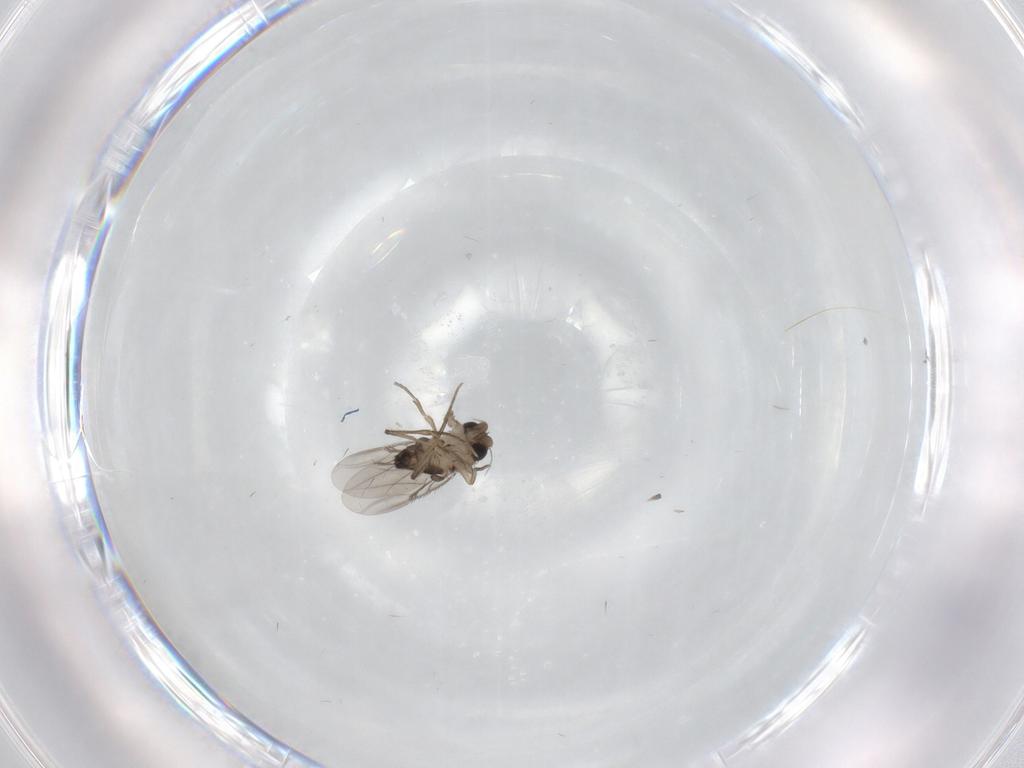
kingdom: Animalia
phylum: Arthropoda
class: Insecta
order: Diptera
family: Phoridae
